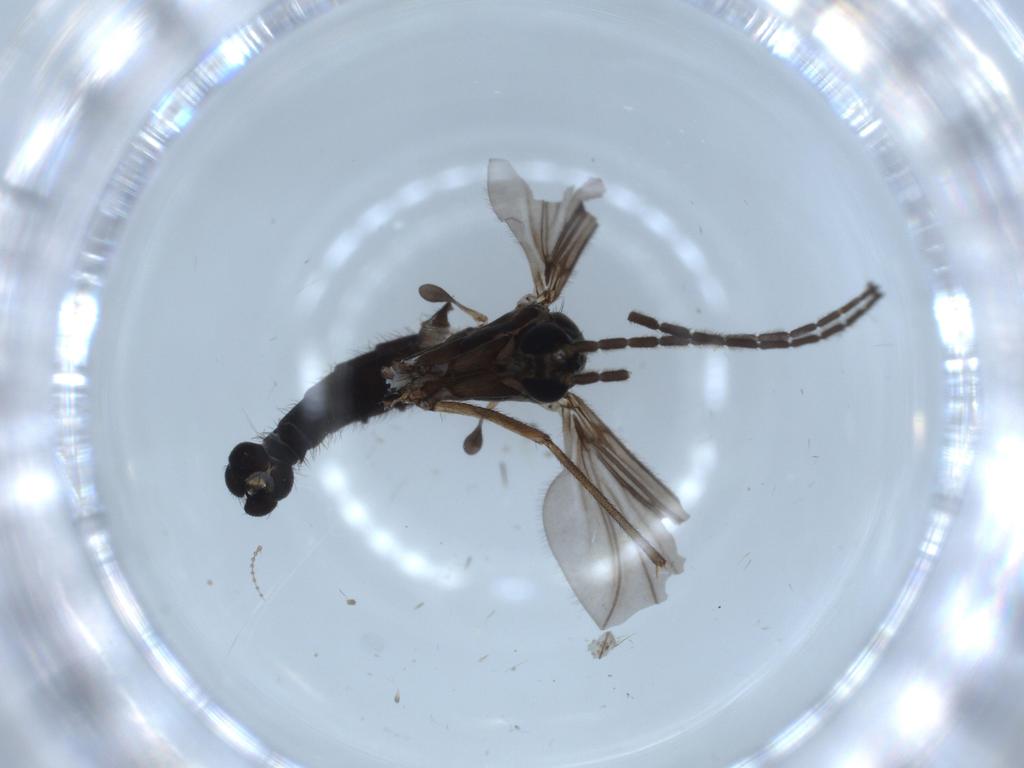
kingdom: Animalia
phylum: Arthropoda
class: Insecta
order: Diptera
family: Sciaridae
